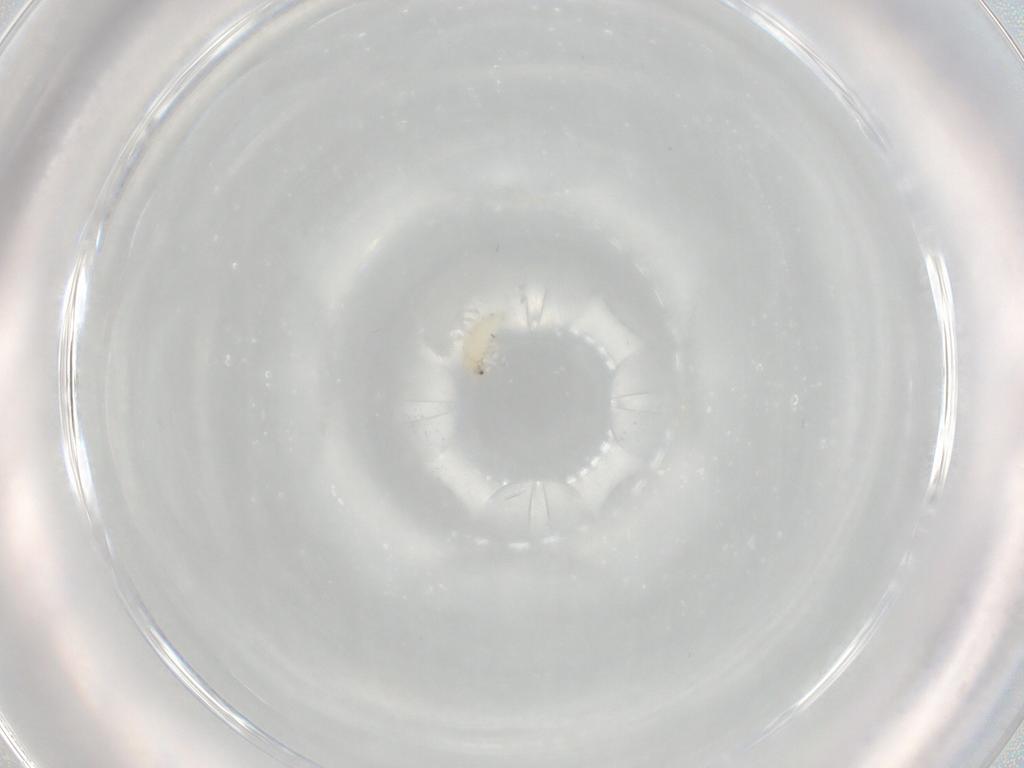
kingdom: Animalia
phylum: Arthropoda
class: Insecta
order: Coleoptera
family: Chrysomelidae
